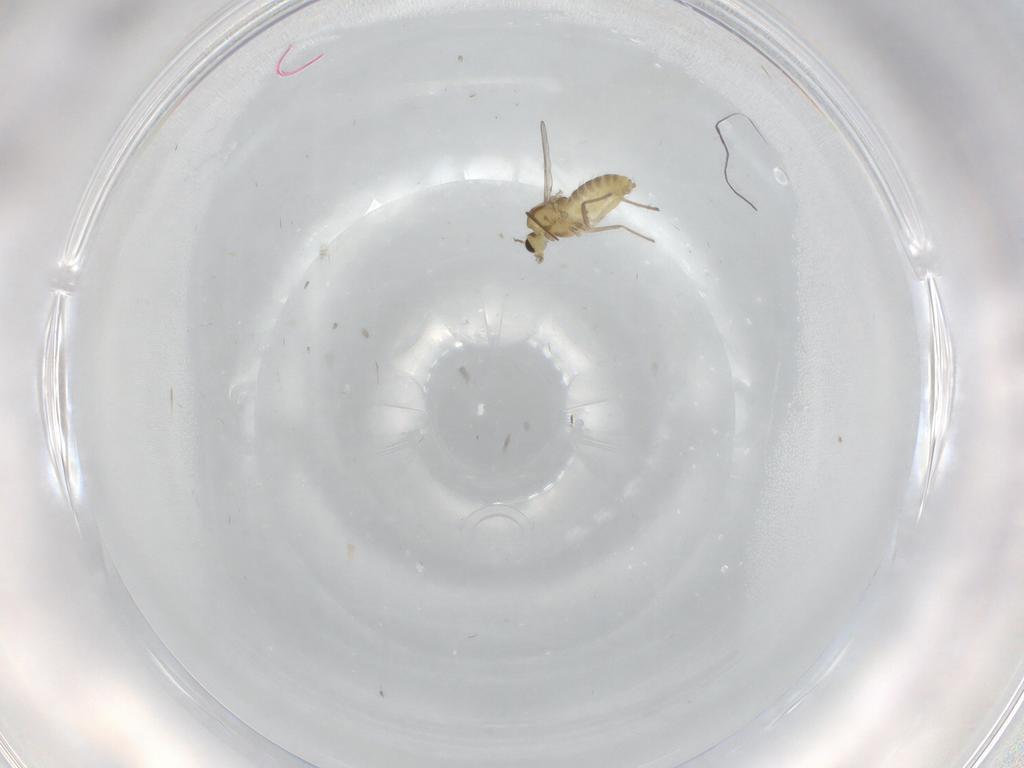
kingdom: Animalia
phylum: Arthropoda
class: Insecta
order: Diptera
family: Chironomidae
